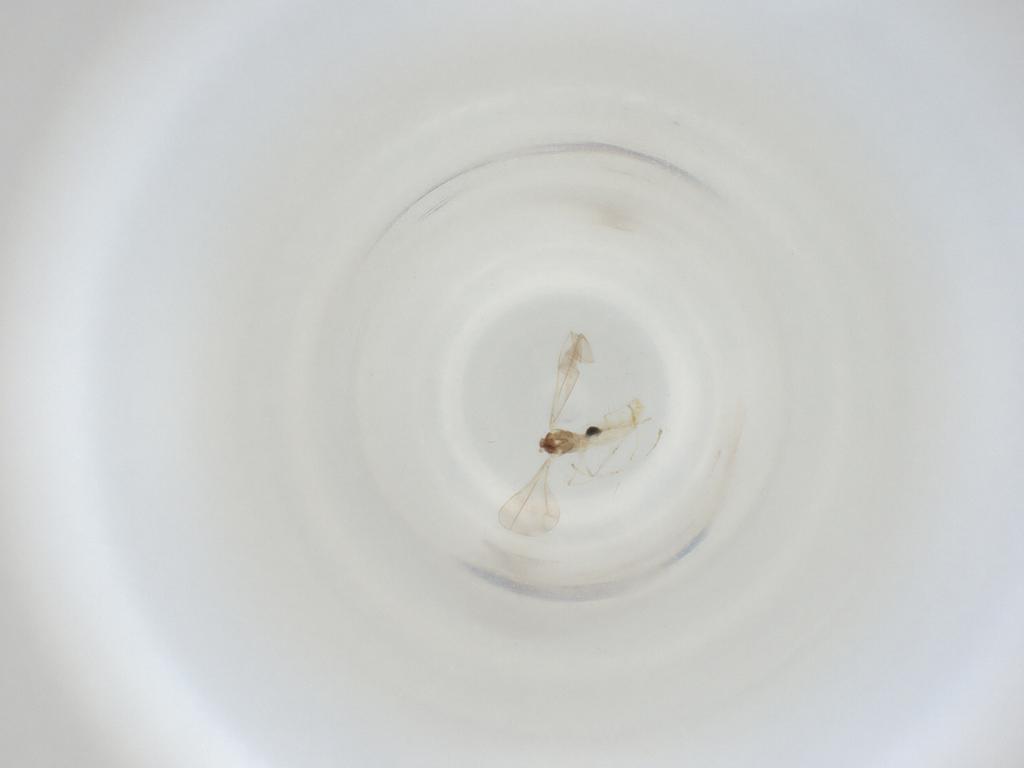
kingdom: Animalia
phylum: Arthropoda
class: Insecta
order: Diptera
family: Cecidomyiidae
